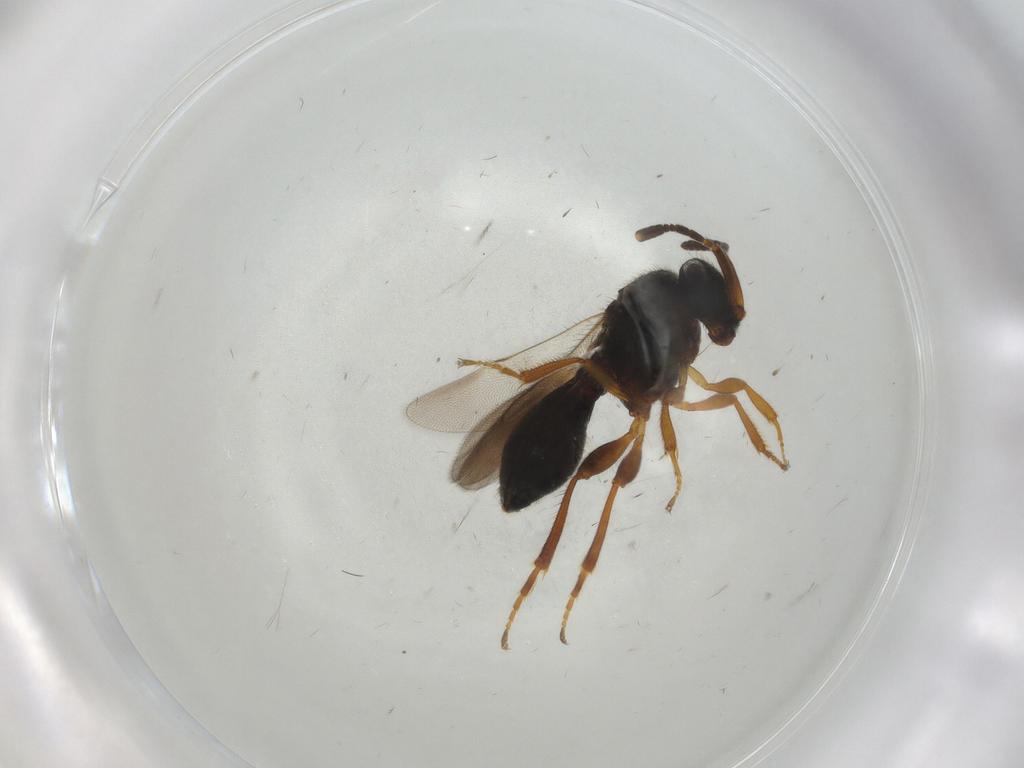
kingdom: Animalia
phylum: Arthropoda
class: Insecta
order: Hymenoptera
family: Scelionidae
